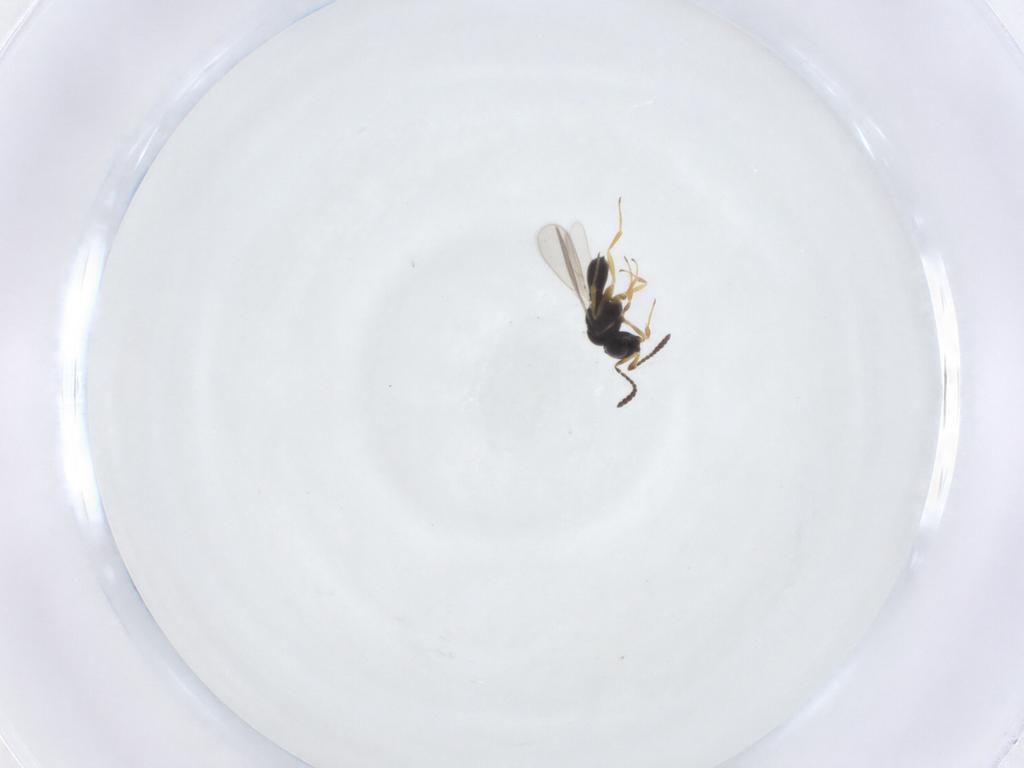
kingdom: Animalia
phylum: Arthropoda
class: Insecta
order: Hymenoptera
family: Scelionidae
